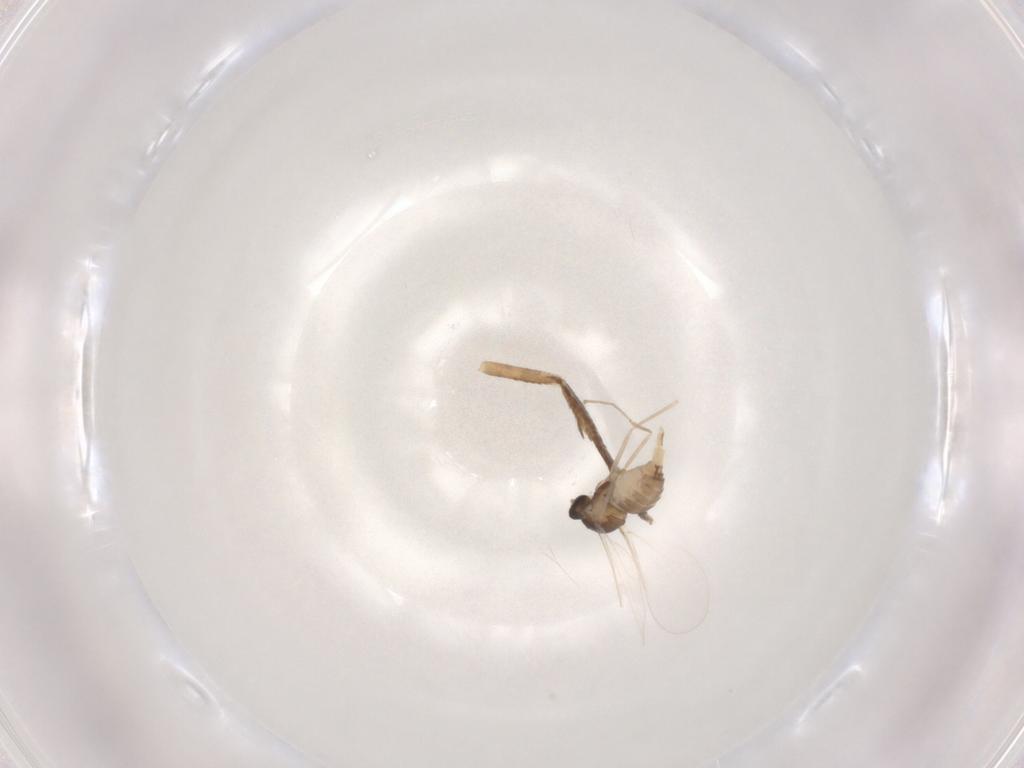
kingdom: Animalia
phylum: Arthropoda
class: Insecta
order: Diptera
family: Cecidomyiidae
